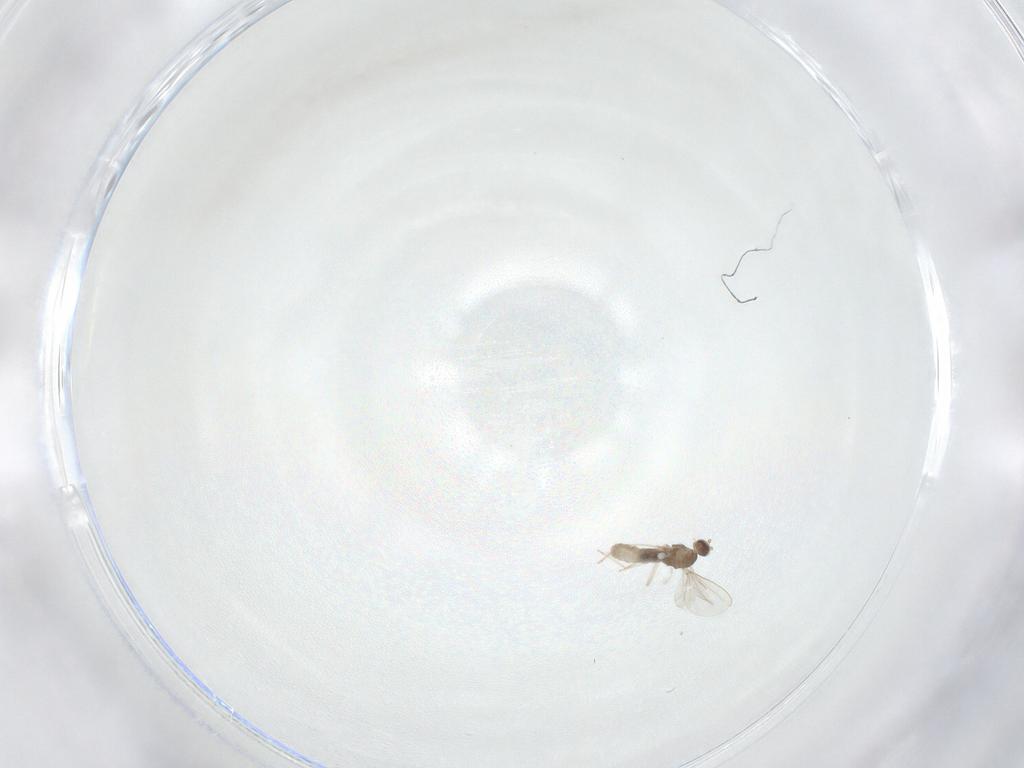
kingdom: Animalia
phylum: Arthropoda
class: Insecta
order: Diptera
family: Cecidomyiidae
